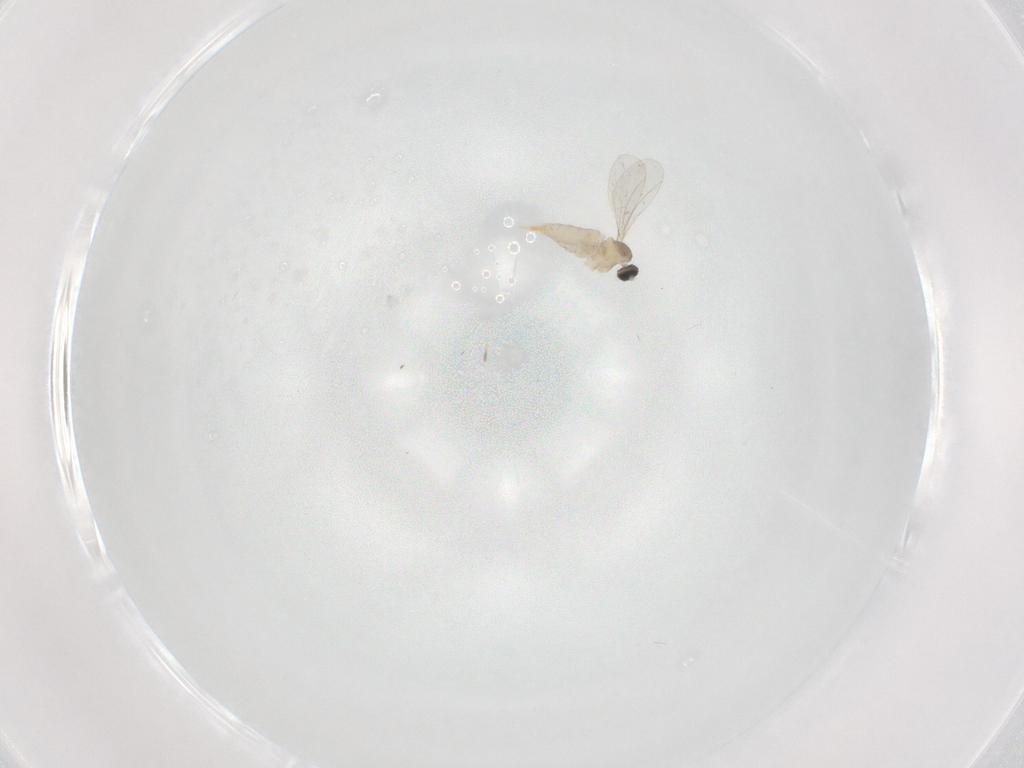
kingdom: Animalia
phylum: Arthropoda
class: Insecta
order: Diptera
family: Cecidomyiidae
